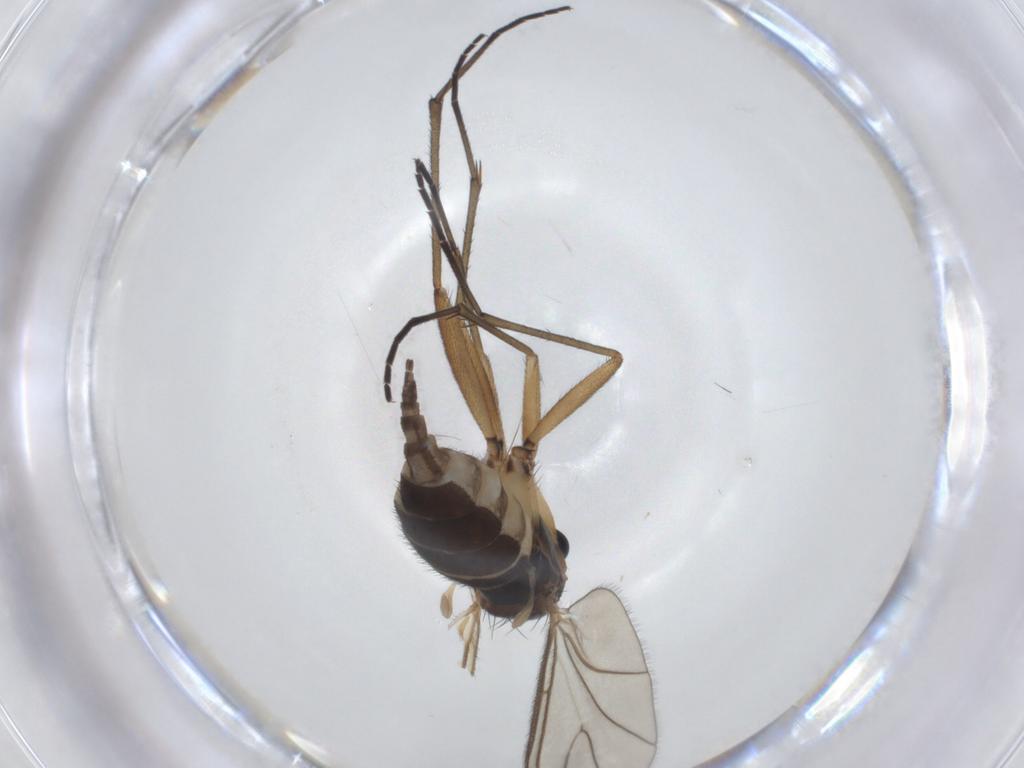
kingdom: Animalia
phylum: Arthropoda
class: Insecta
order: Diptera
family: Sciaridae
